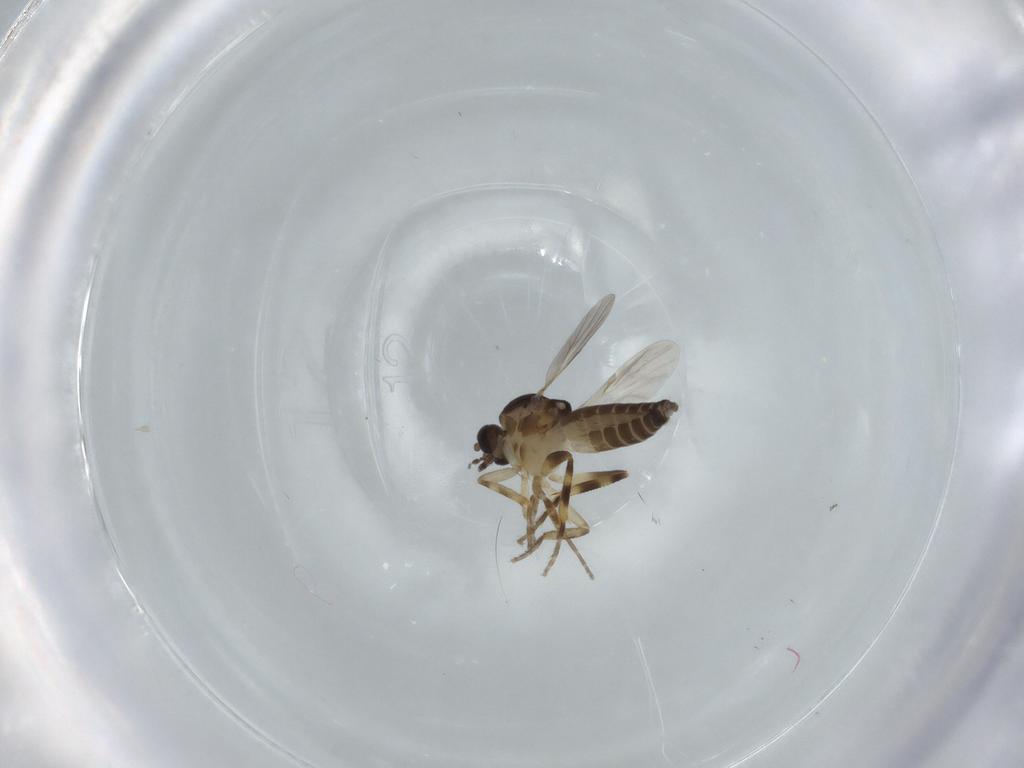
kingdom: Animalia
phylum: Arthropoda
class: Insecta
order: Diptera
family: Ceratopogonidae
